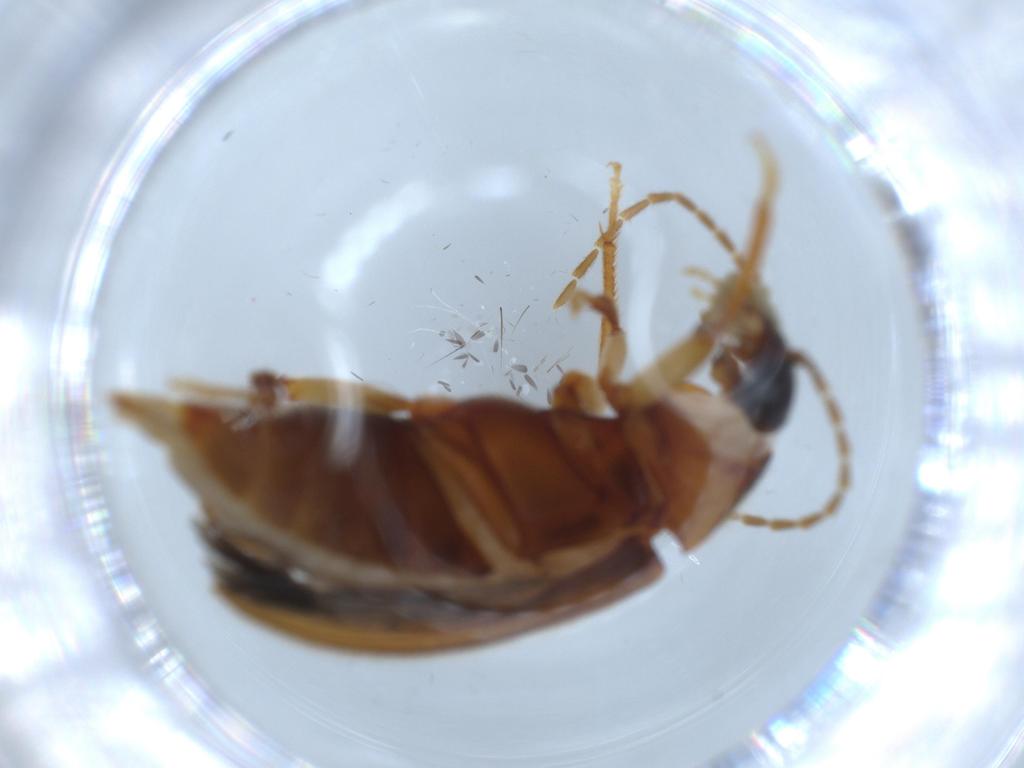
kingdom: Animalia
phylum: Arthropoda
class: Insecta
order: Coleoptera
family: Ptilodactylidae
